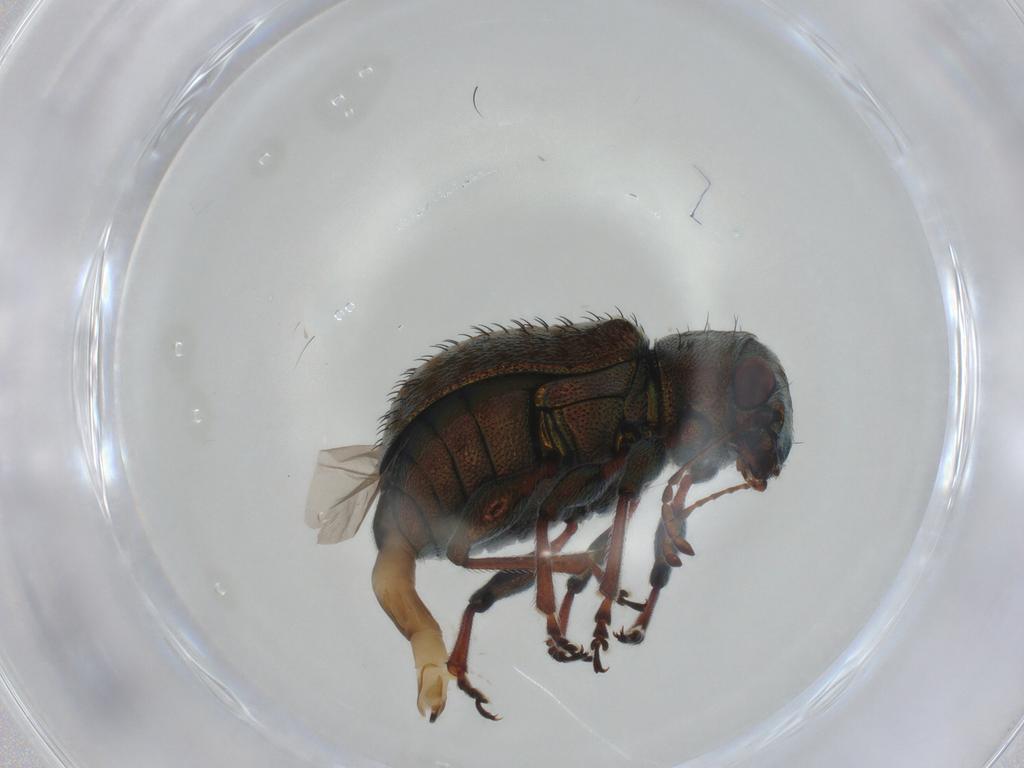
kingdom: Animalia
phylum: Arthropoda
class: Insecta
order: Coleoptera
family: Chrysomelidae
